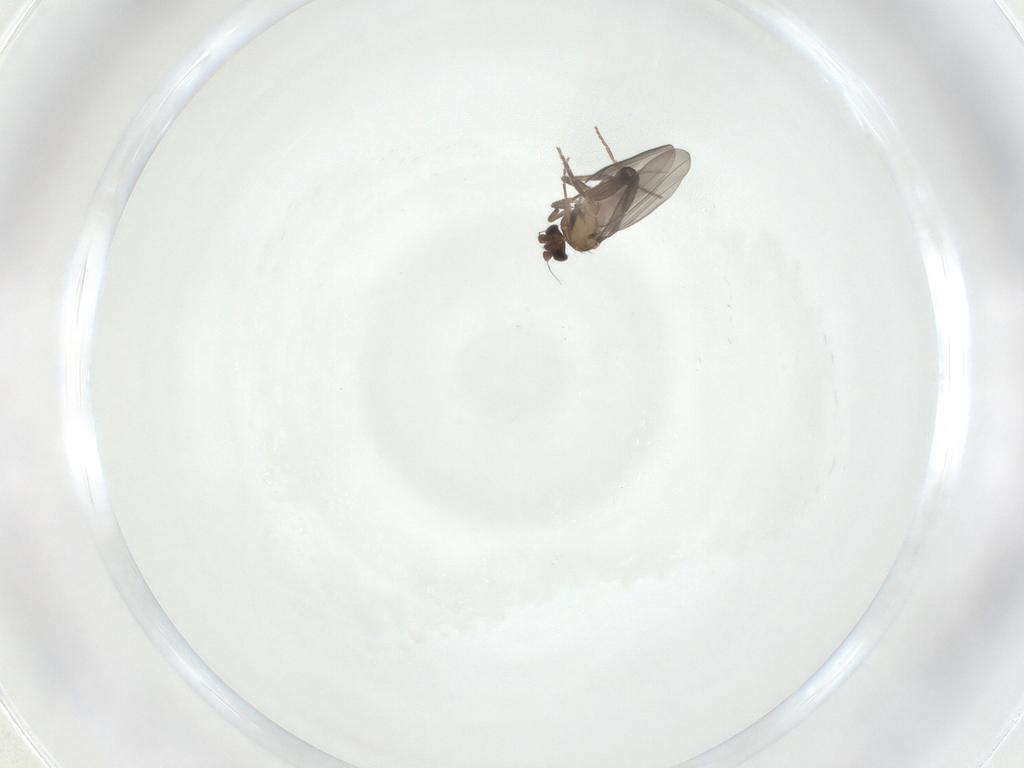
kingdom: Animalia
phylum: Arthropoda
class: Insecta
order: Diptera
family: Phoridae
